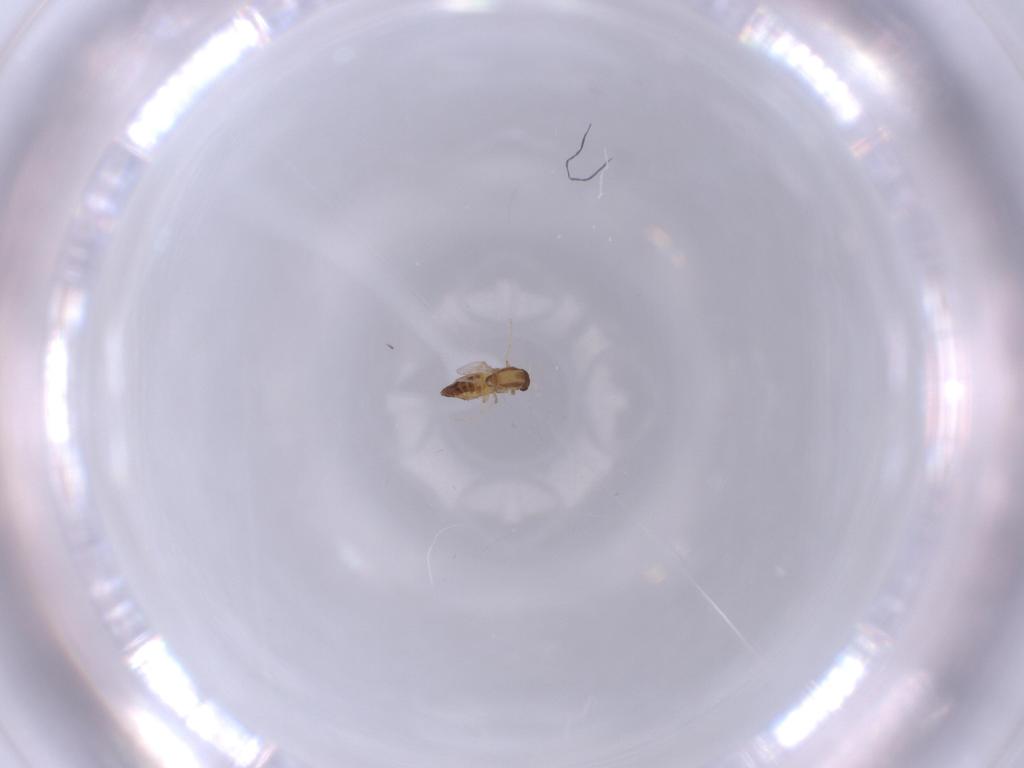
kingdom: Animalia
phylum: Arthropoda
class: Insecta
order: Diptera
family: Chironomidae
